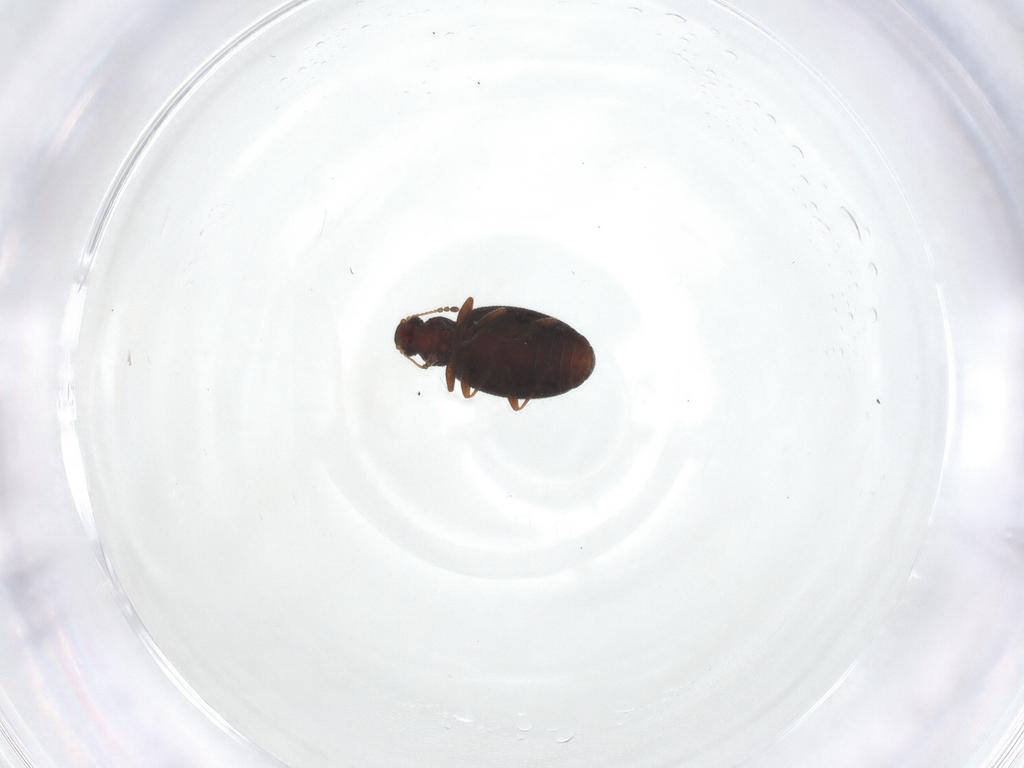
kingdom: Animalia
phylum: Arthropoda
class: Insecta
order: Coleoptera
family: Latridiidae
